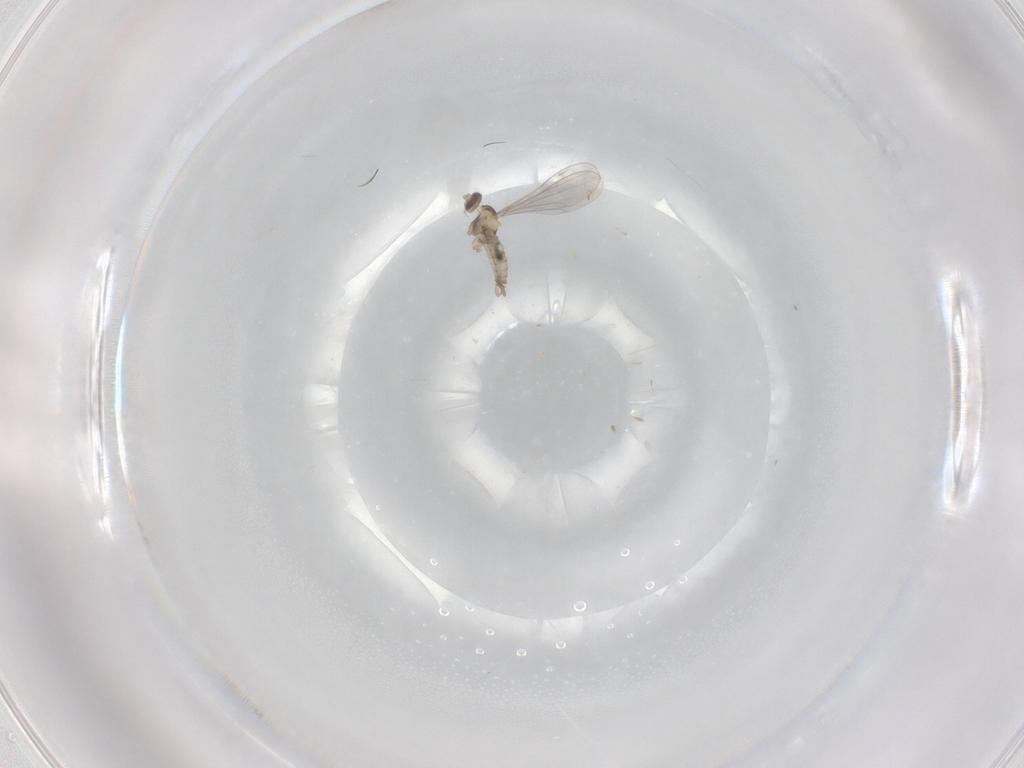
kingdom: Animalia
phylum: Arthropoda
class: Insecta
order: Diptera
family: Cecidomyiidae
